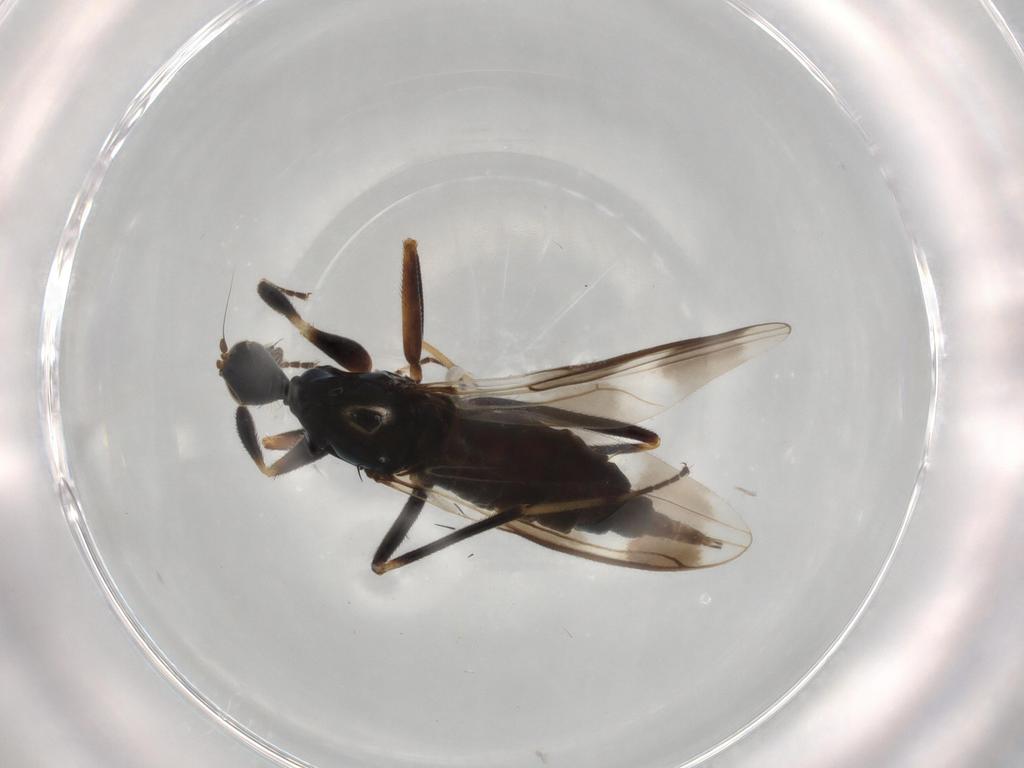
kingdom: Animalia
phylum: Arthropoda
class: Insecta
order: Diptera
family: Hybotidae
